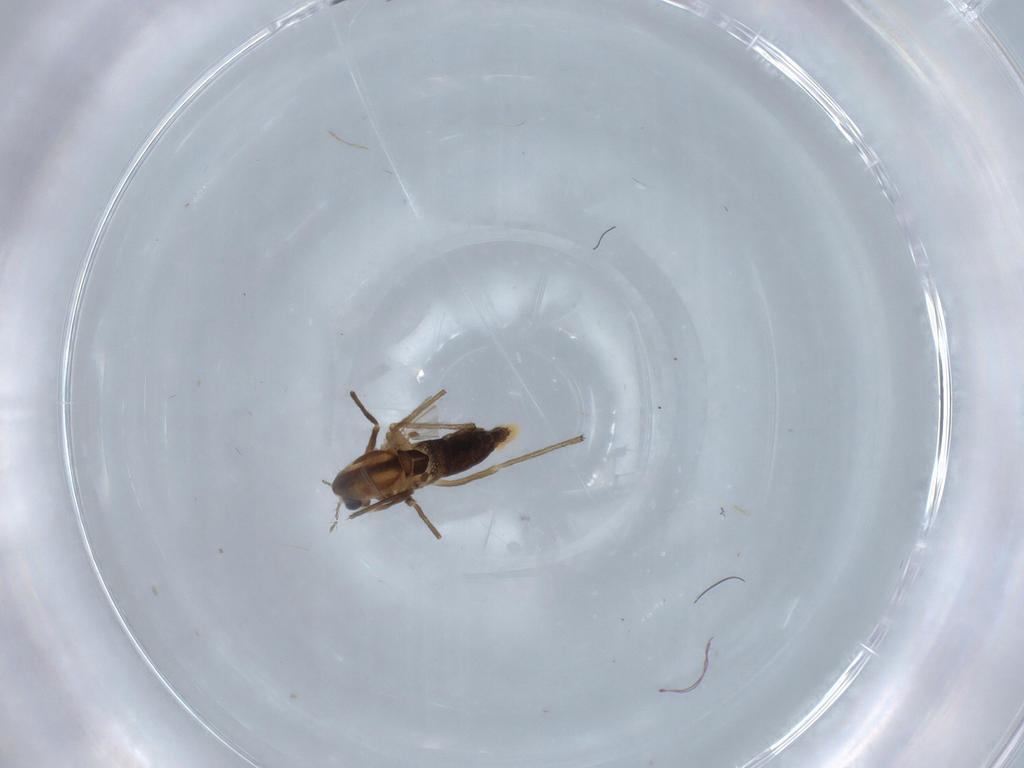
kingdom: Animalia
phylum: Arthropoda
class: Insecta
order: Diptera
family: Chironomidae
